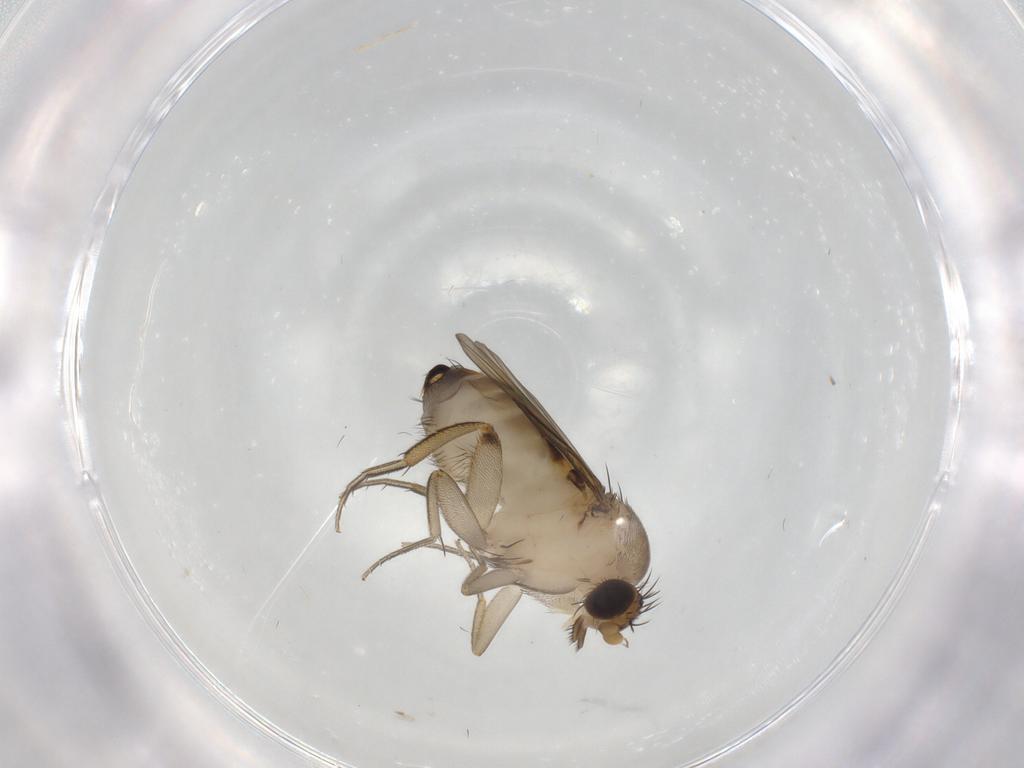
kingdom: Animalia
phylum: Arthropoda
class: Insecta
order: Diptera
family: Phoridae
